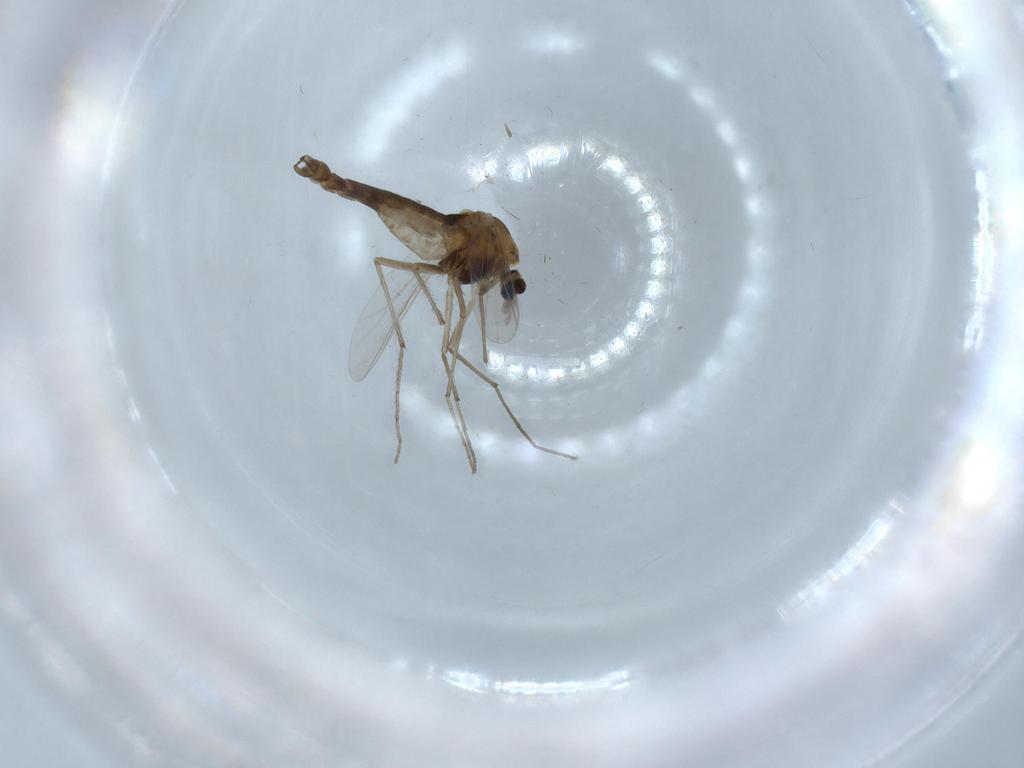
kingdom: Animalia
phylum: Arthropoda
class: Insecta
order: Diptera
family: Chironomidae
